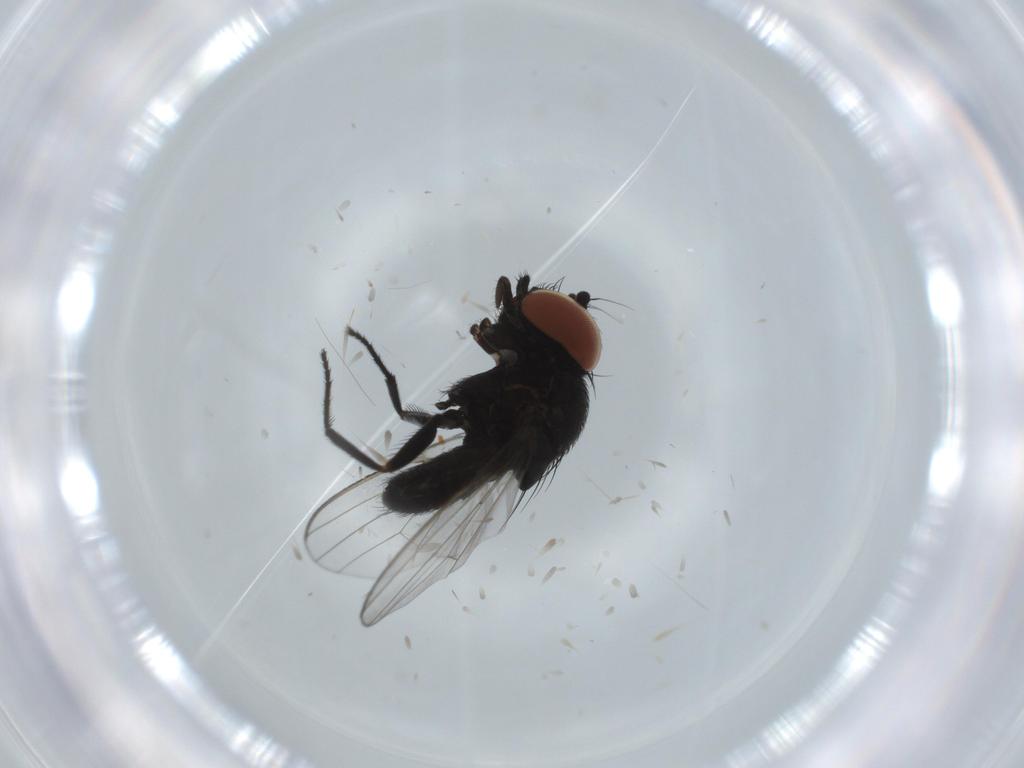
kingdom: Animalia
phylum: Arthropoda
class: Insecta
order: Diptera
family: Milichiidae
